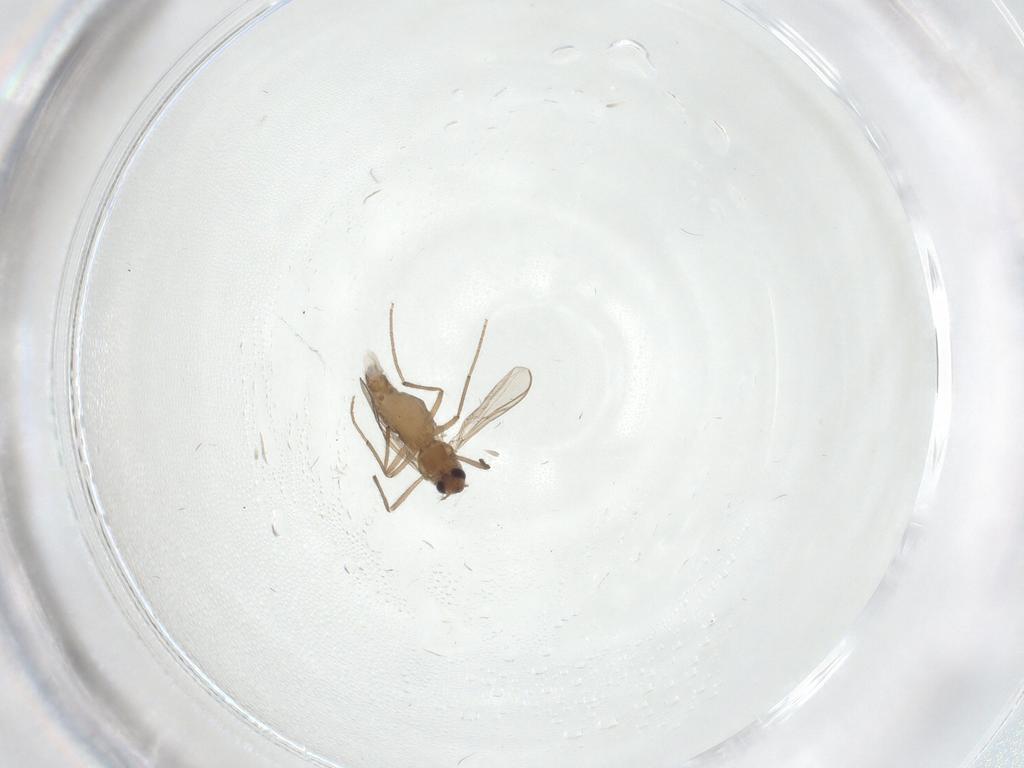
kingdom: Animalia
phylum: Arthropoda
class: Insecta
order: Diptera
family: Chironomidae
